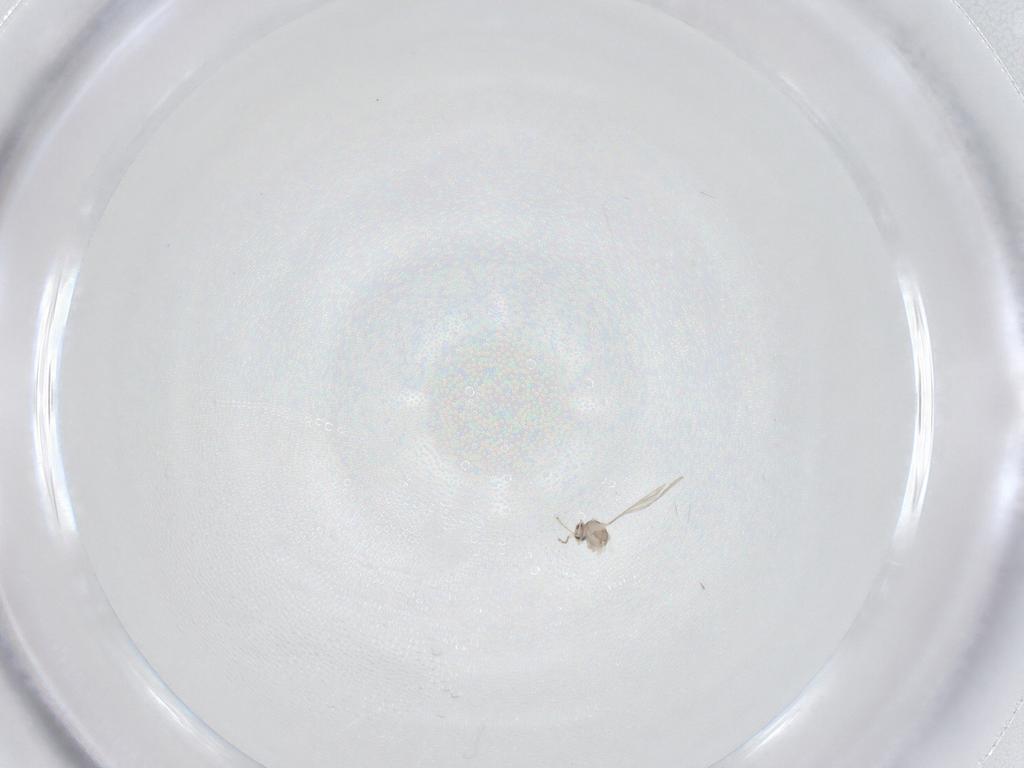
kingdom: Animalia
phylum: Arthropoda
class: Insecta
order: Diptera
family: Cecidomyiidae
